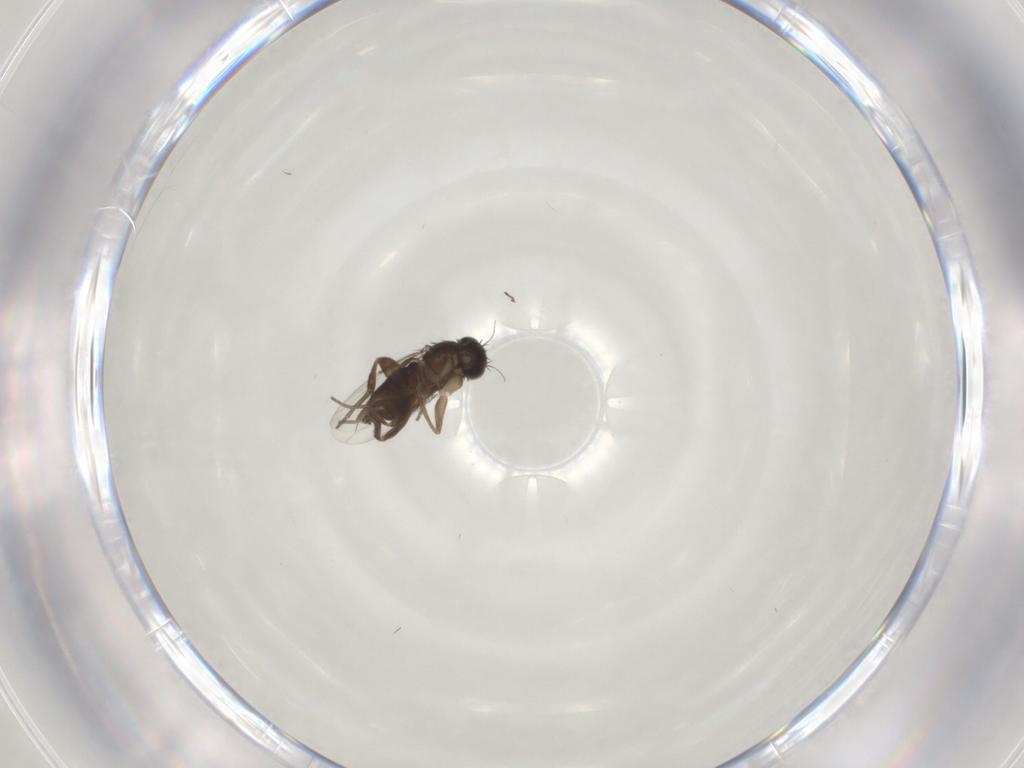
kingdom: Animalia
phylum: Arthropoda
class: Insecta
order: Diptera
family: Phoridae
